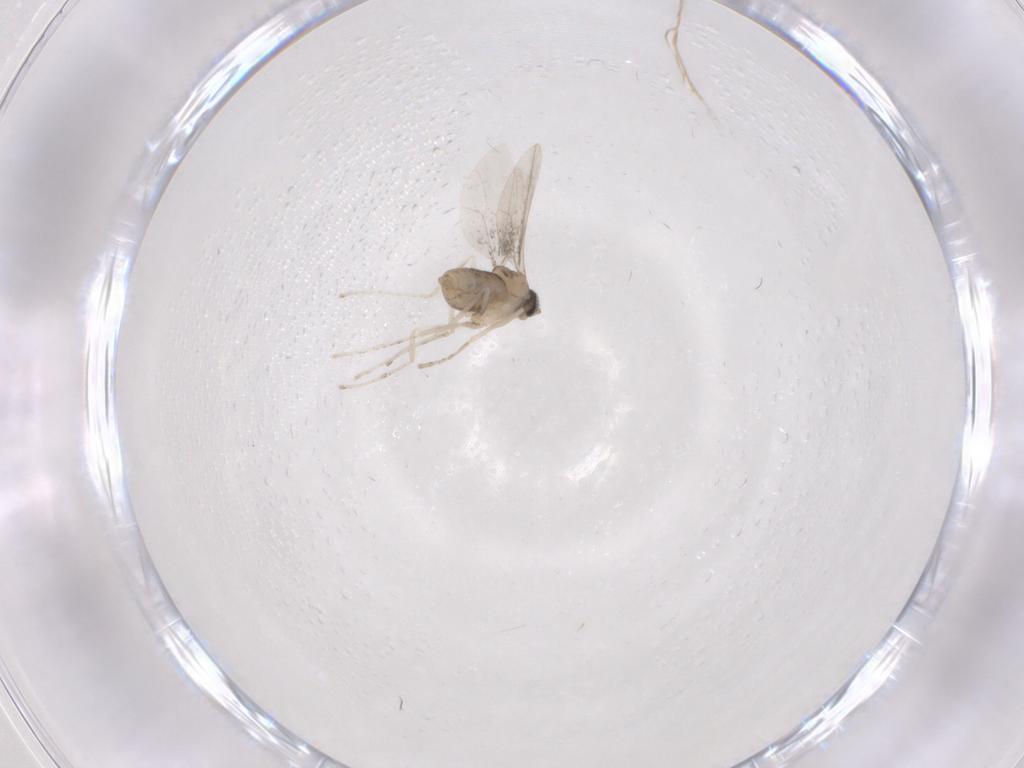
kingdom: Animalia
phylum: Arthropoda
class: Insecta
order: Diptera
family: Cecidomyiidae
